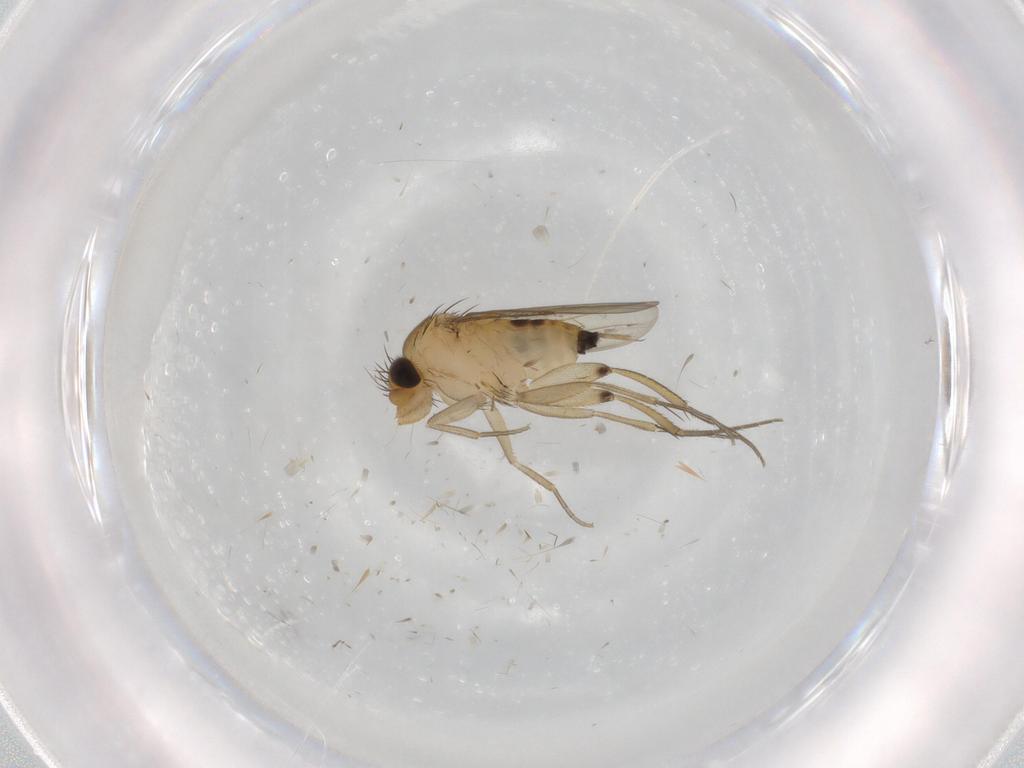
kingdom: Animalia
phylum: Arthropoda
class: Insecta
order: Diptera
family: Phoridae
